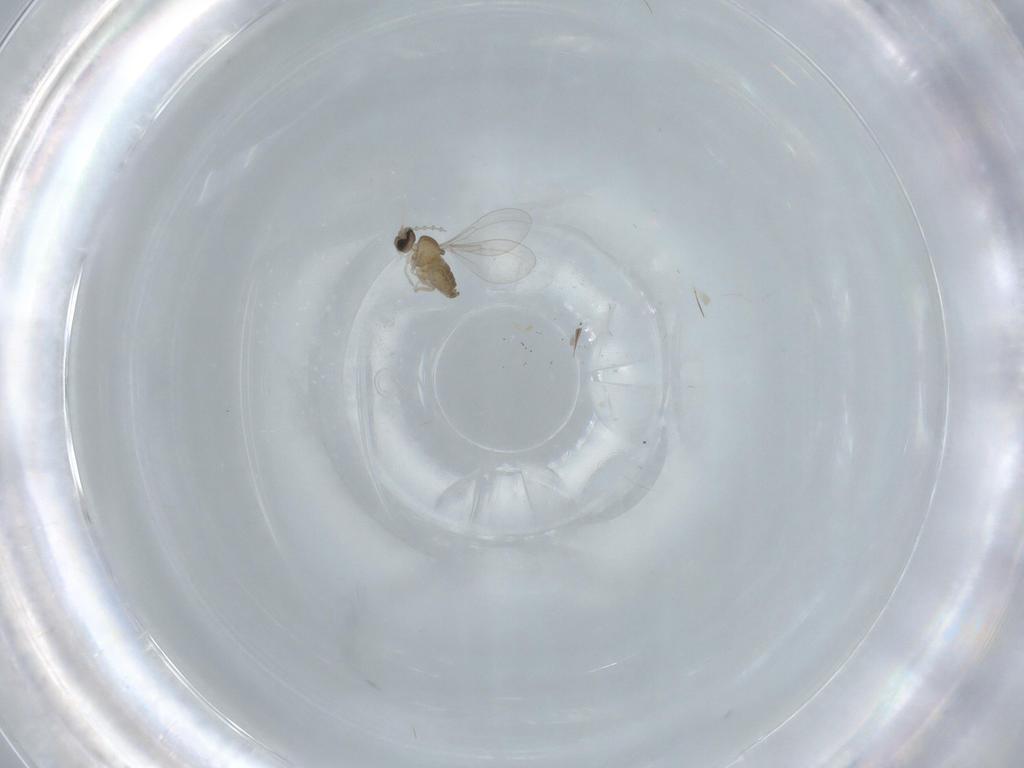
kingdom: Animalia
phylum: Arthropoda
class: Insecta
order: Diptera
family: Cecidomyiidae
